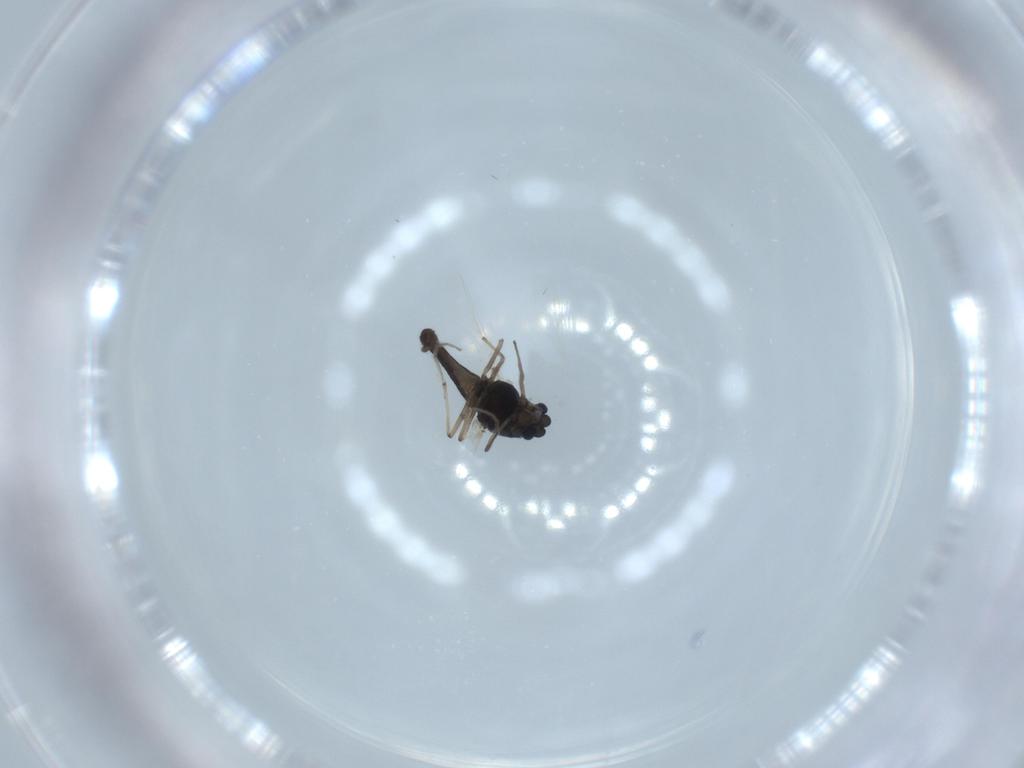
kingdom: Animalia
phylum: Arthropoda
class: Insecta
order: Diptera
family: Chironomidae
